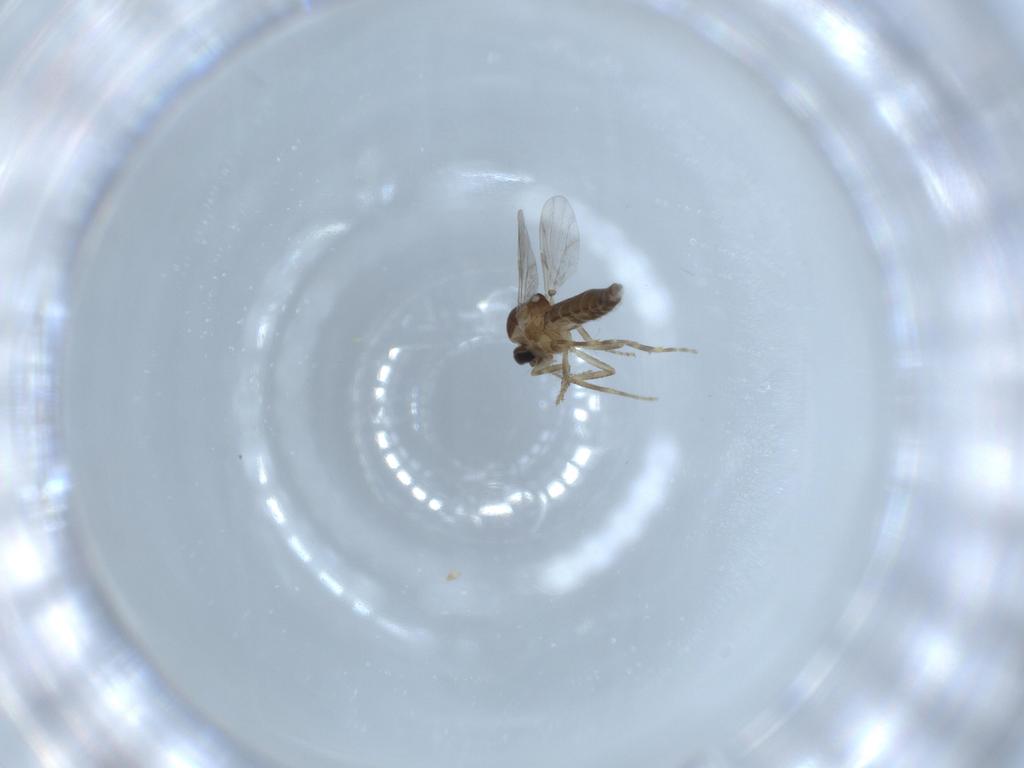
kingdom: Animalia
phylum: Arthropoda
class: Insecta
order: Diptera
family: Ceratopogonidae
